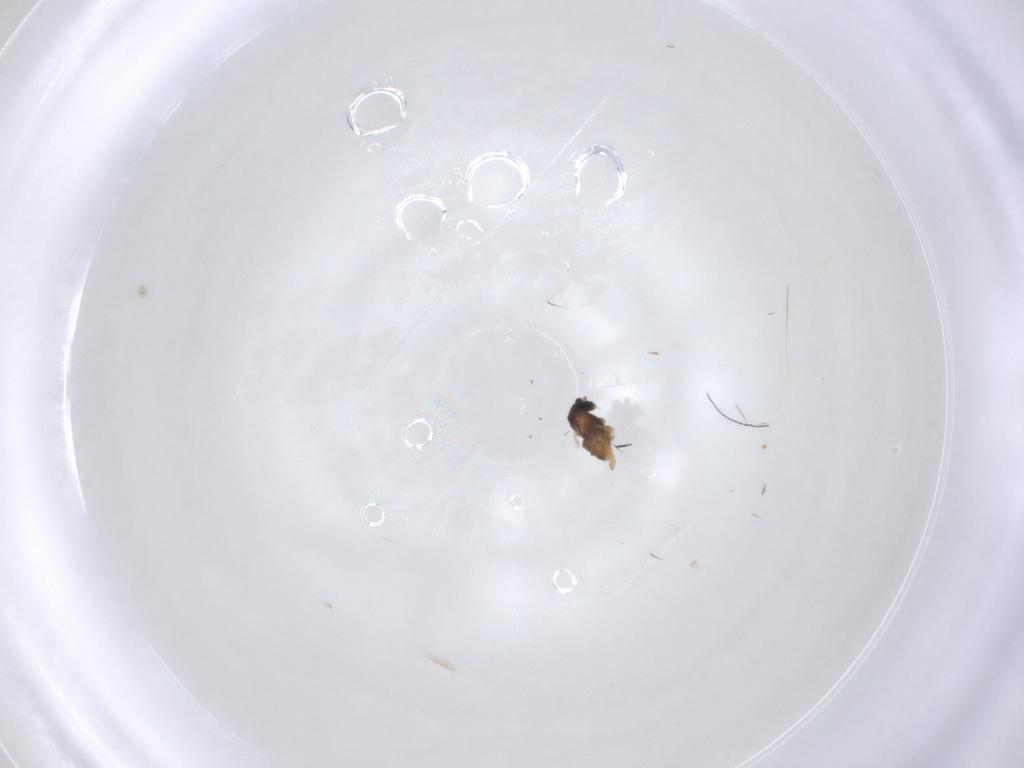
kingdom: Animalia
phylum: Arthropoda
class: Insecta
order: Diptera
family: Cecidomyiidae
